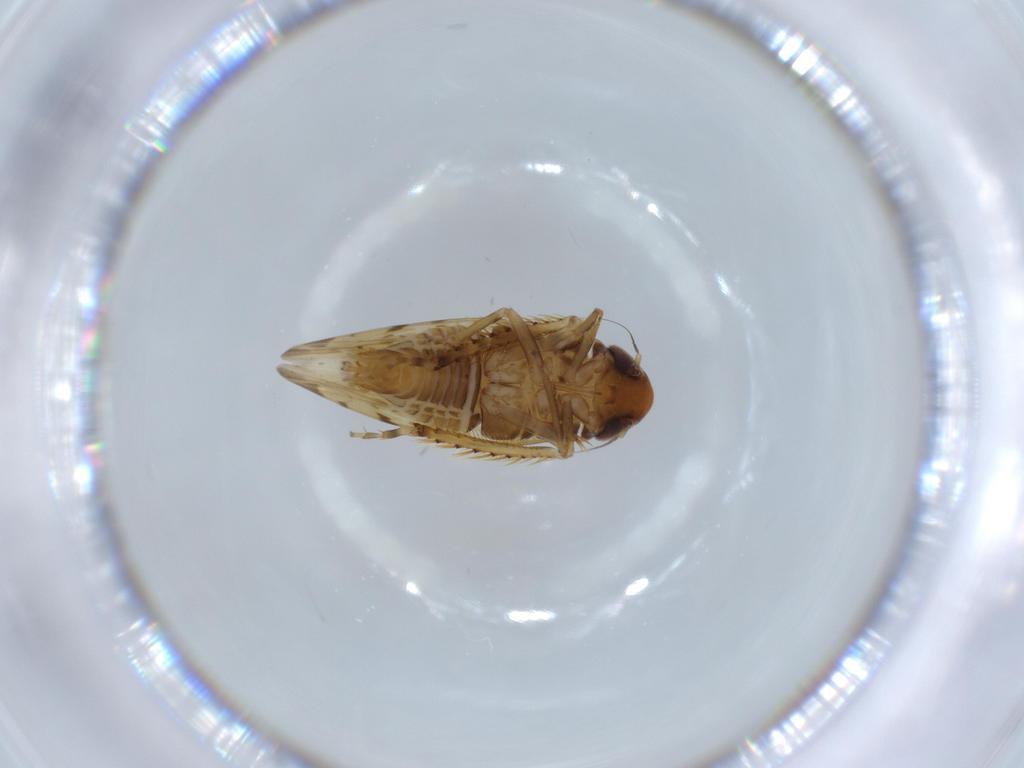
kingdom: Animalia
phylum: Arthropoda
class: Insecta
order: Hemiptera
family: Cicadellidae
